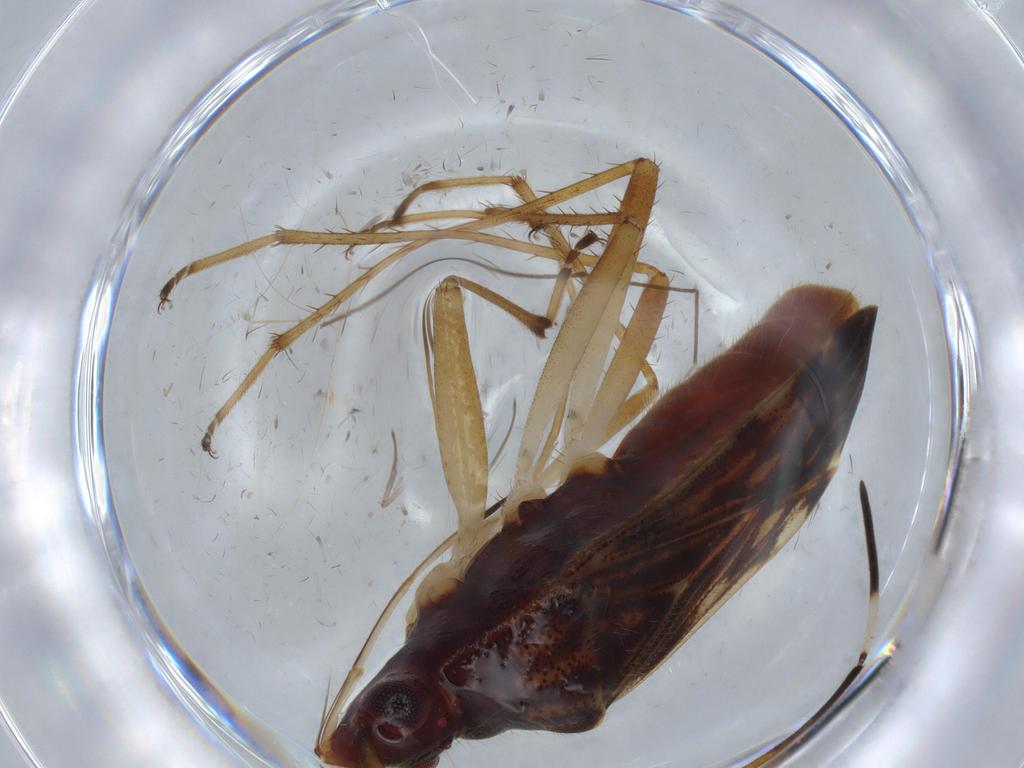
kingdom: Animalia
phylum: Arthropoda
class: Insecta
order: Hemiptera
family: Rhyparochromidae
